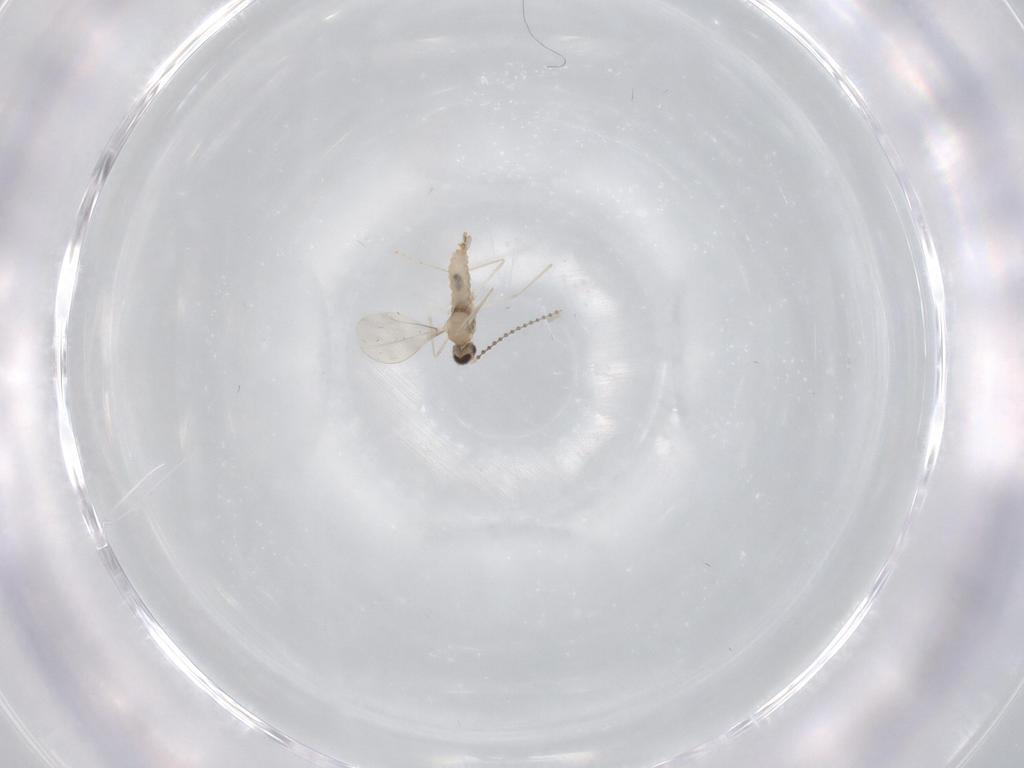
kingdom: Animalia
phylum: Arthropoda
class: Insecta
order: Diptera
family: Cecidomyiidae
